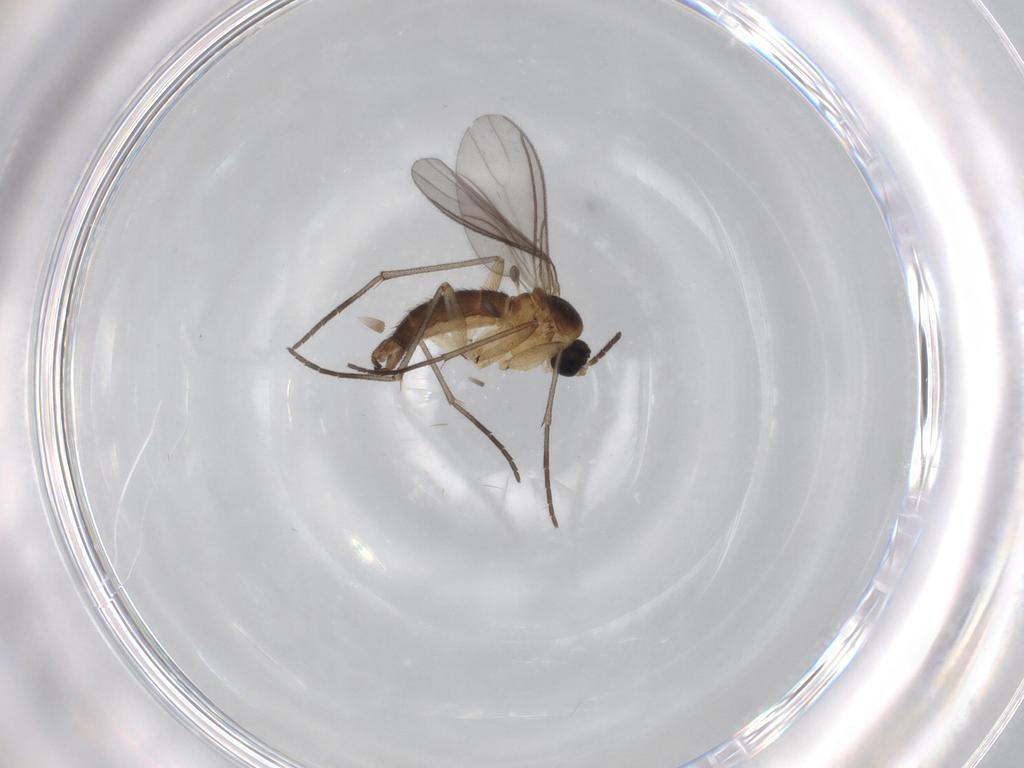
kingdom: Animalia
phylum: Arthropoda
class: Insecta
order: Diptera
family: Sciaridae
